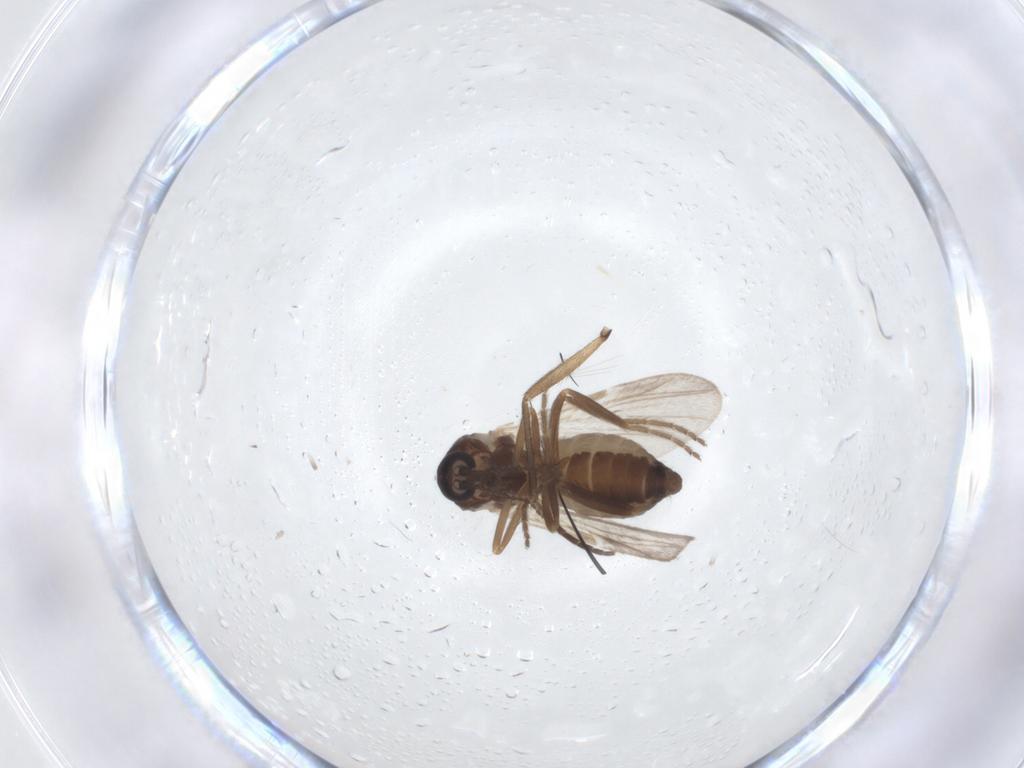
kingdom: Animalia
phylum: Arthropoda
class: Insecta
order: Diptera
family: Ceratopogonidae
